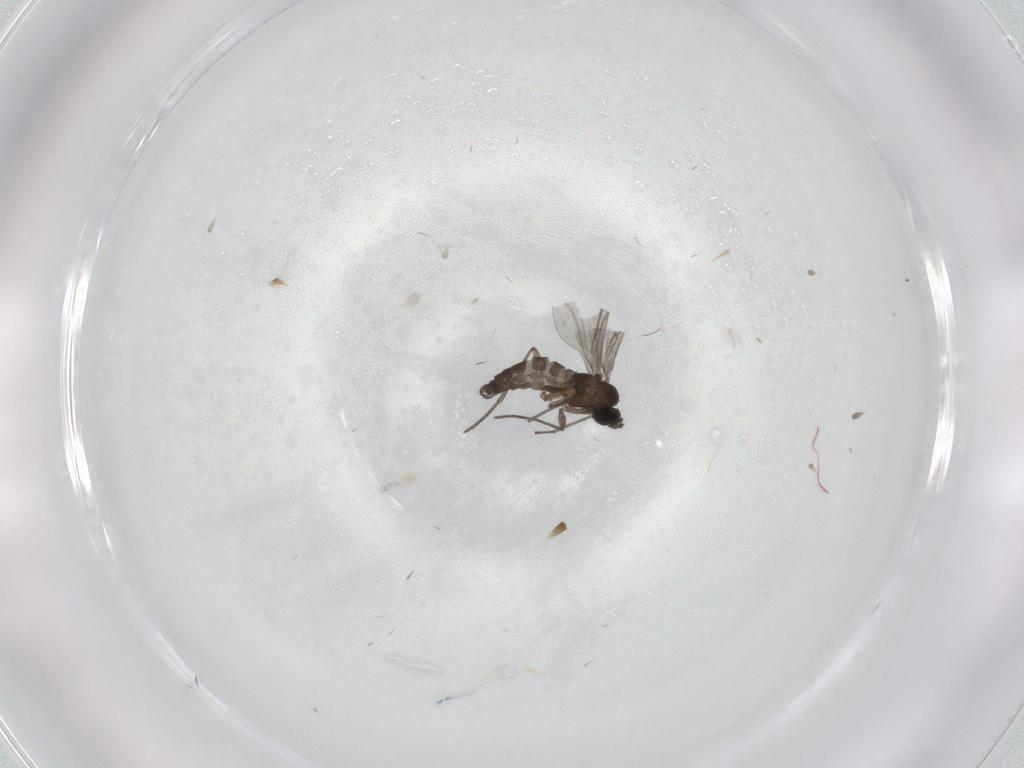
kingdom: Animalia
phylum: Arthropoda
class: Insecta
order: Diptera
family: Sciaridae
